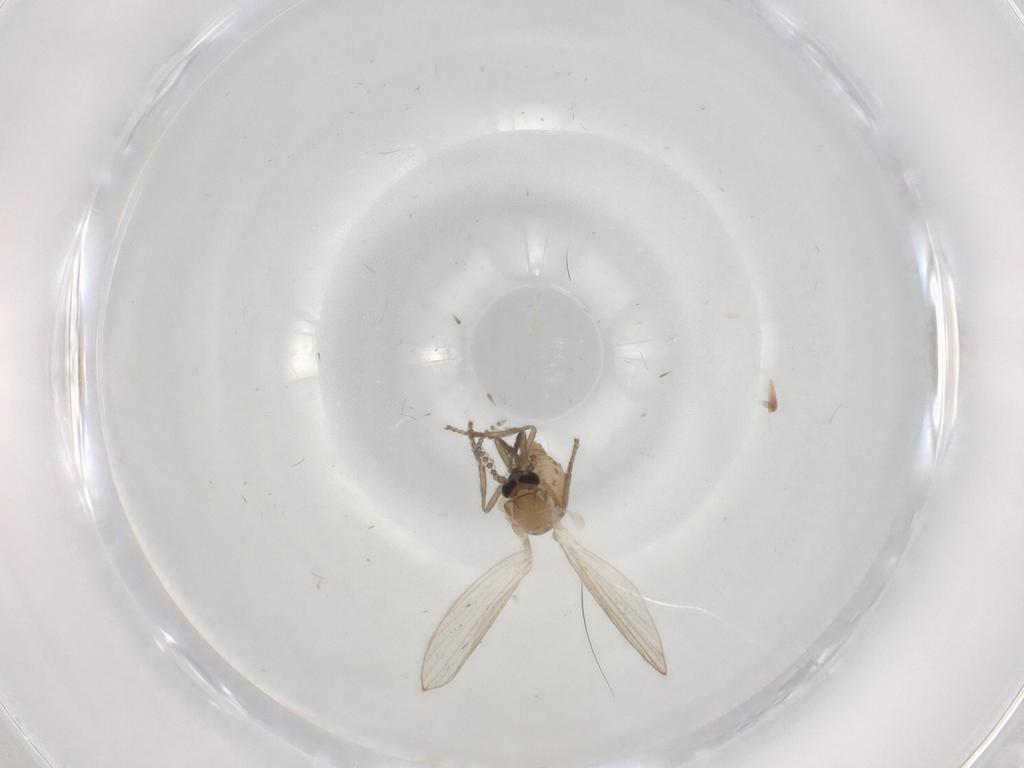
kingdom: Animalia
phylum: Arthropoda
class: Insecta
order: Diptera
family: Psychodidae
